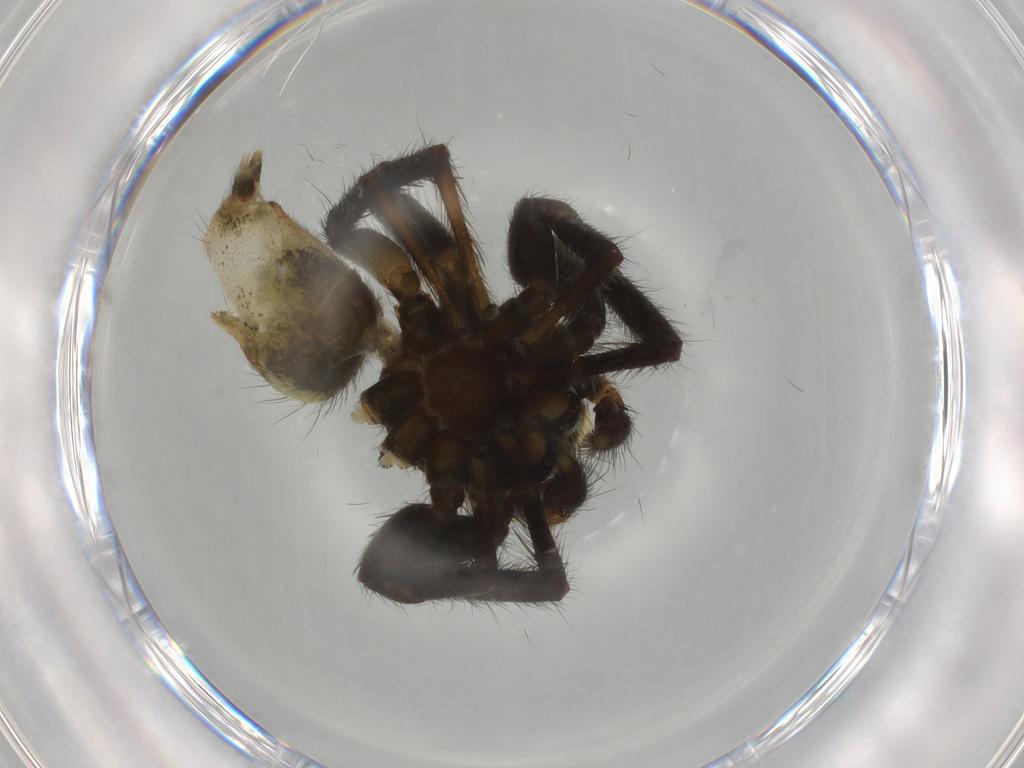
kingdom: Animalia
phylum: Arthropoda
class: Arachnida
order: Araneae
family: Salticidae
